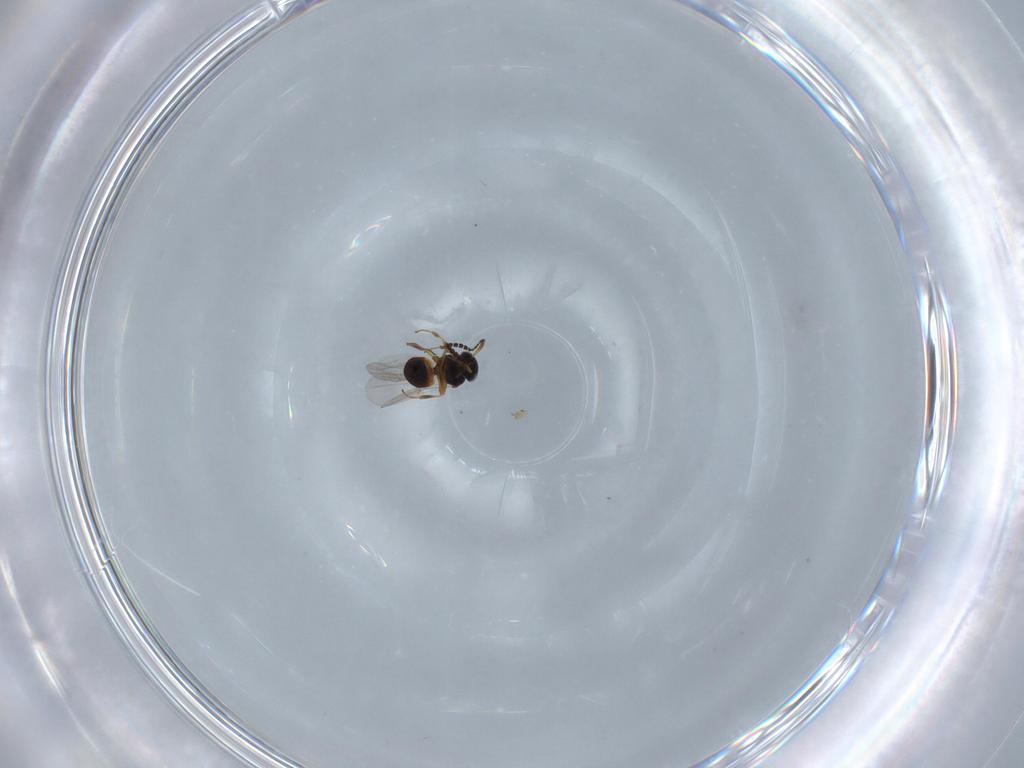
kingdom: Animalia
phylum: Arthropoda
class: Insecta
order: Hymenoptera
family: Platygastridae
